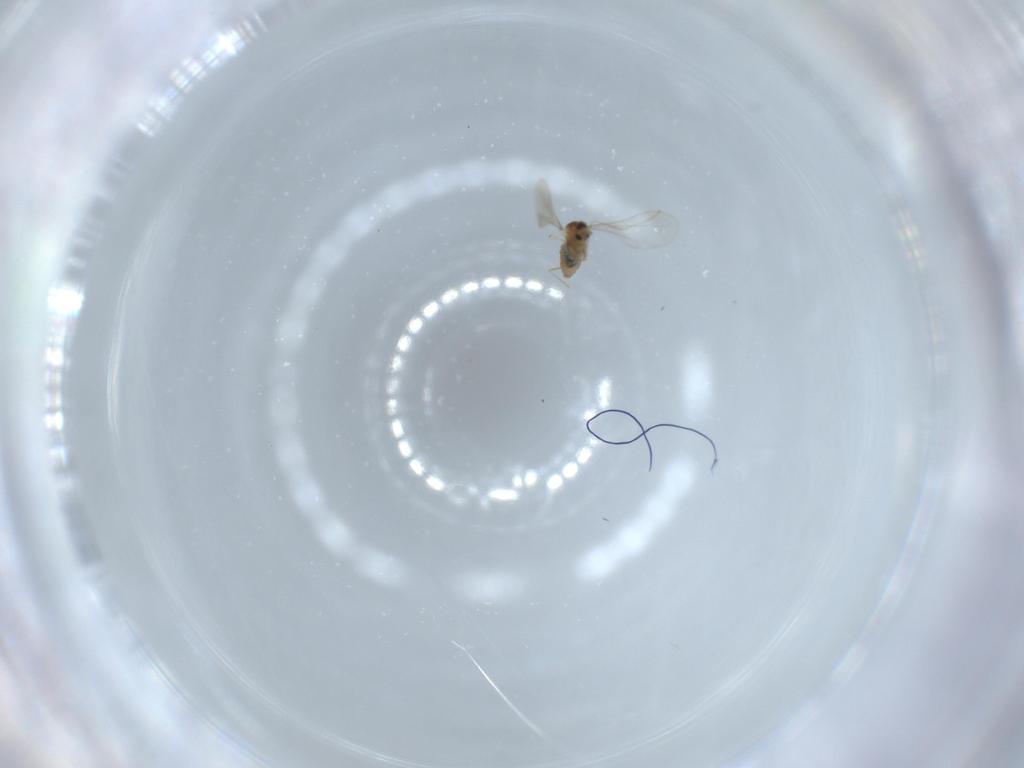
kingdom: Animalia
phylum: Arthropoda
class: Insecta
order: Diptera
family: Cecidomyiidae
